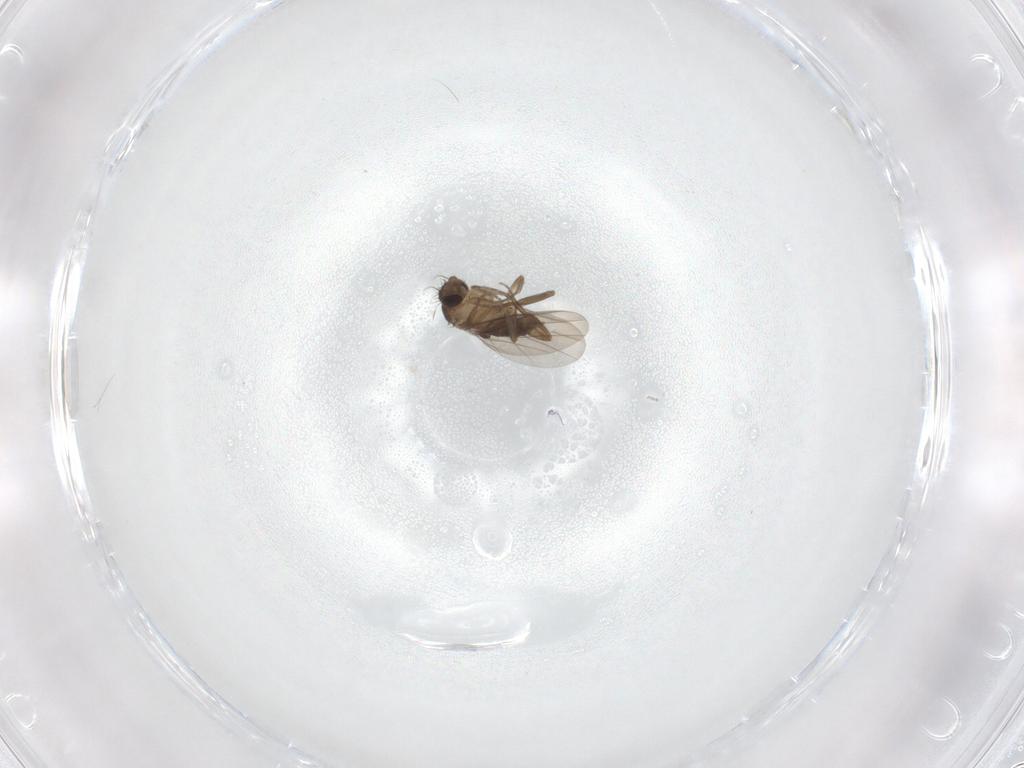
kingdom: Animalia
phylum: Arthropoda
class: Insecta
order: Diptera
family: Phoridae
